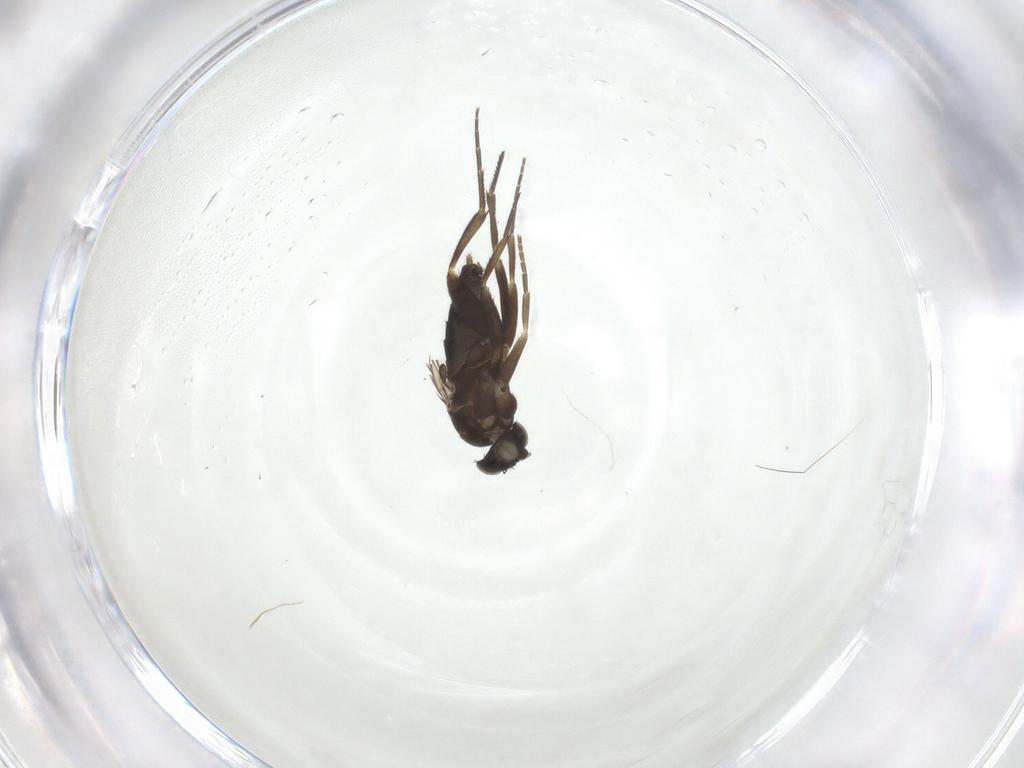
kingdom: Animalia
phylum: Arthropoda
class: Insecta
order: Diptera
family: Phoridae
